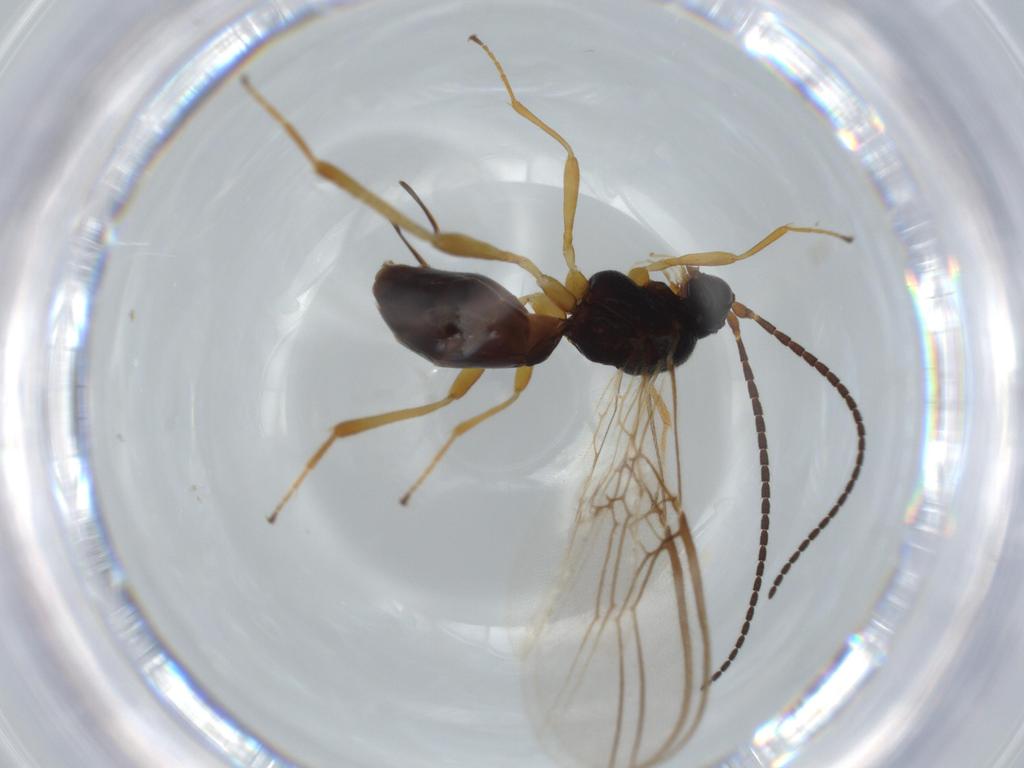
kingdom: Animalia
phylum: Arthropoda
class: Insecta
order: Hymenoptera
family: Braconidae
